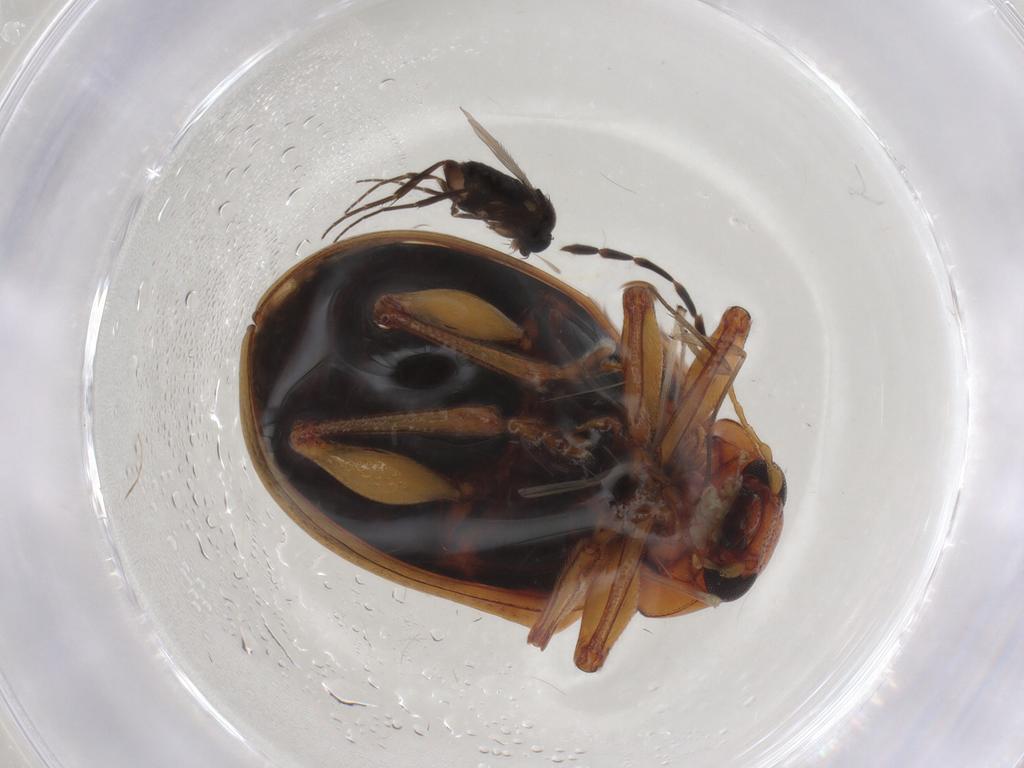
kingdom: Animalia
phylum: Arthropoda
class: Insecta
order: Coleoptera
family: Chrysomelidae
